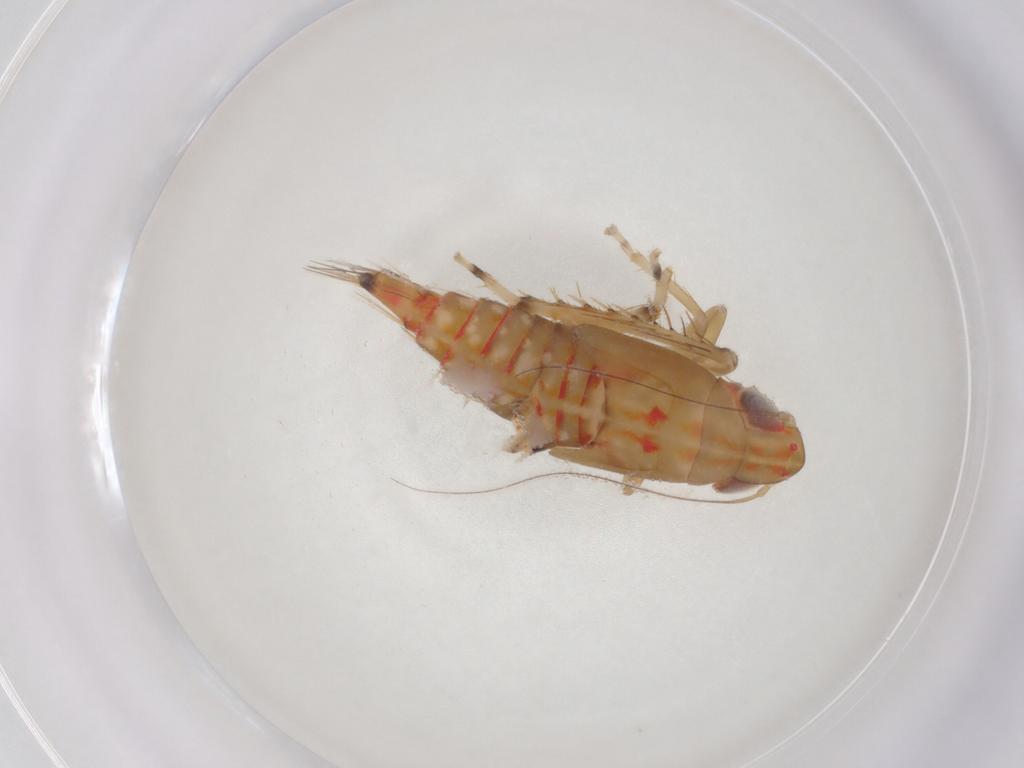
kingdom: Animalia
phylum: Arthropoda
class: Insecta
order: Hemiptera
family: Cicadellidae
